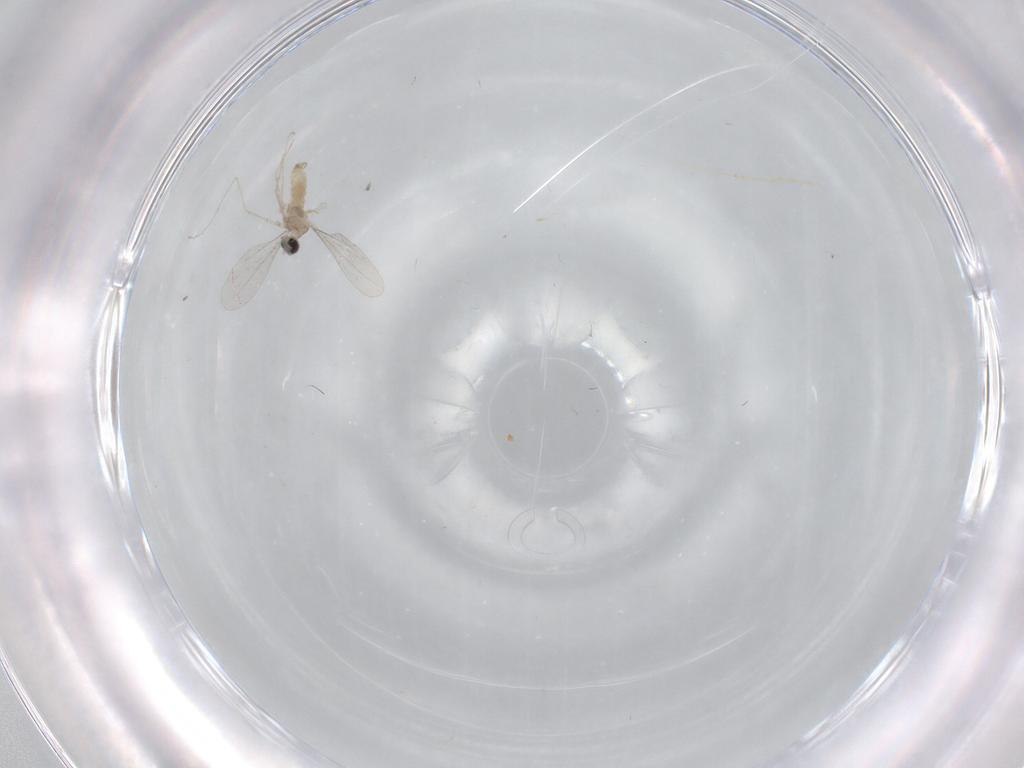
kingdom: Animalia
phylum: Arthropoda
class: Insecta
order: Diptera
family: Cecidomyiidae
